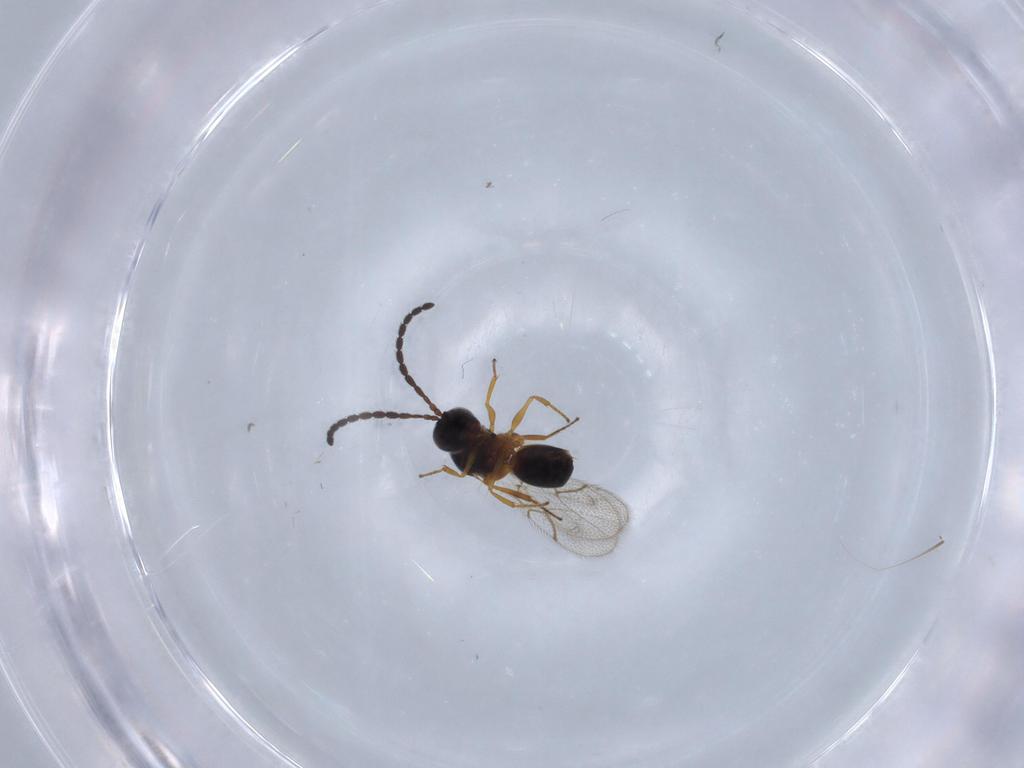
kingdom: Animalia
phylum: Arthropoda
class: Insecta
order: Hymenoptera
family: Figitidae
